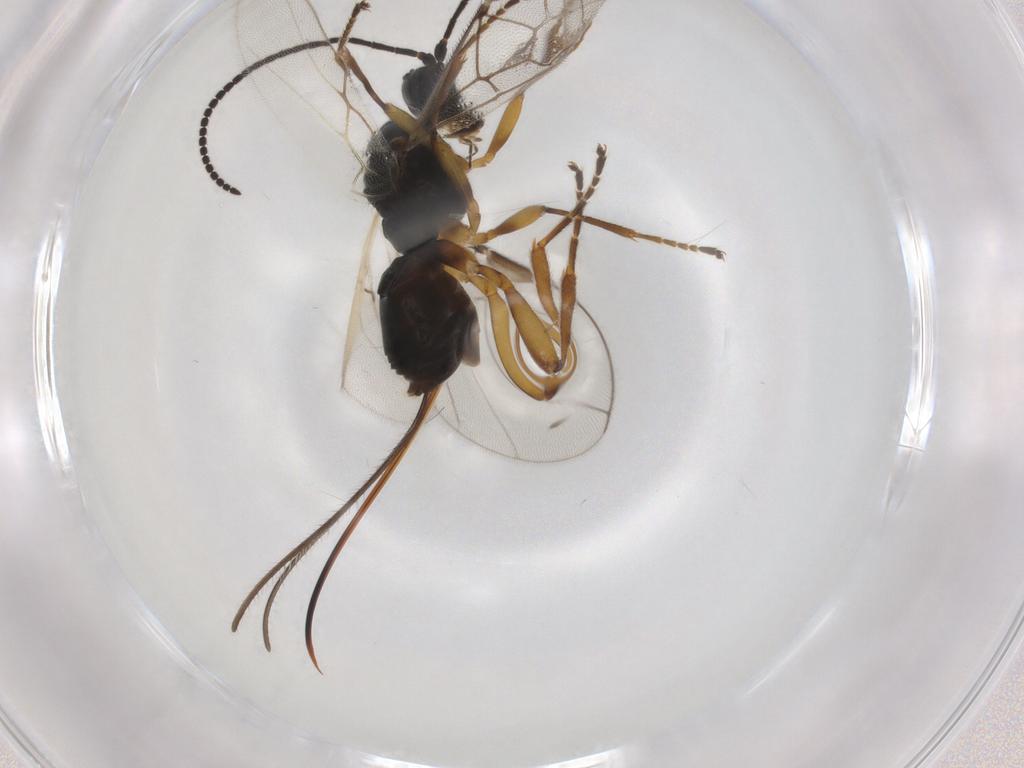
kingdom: Animalia
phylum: Arthropoda
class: Insecta
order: Hymenoptera
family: Braconidae
